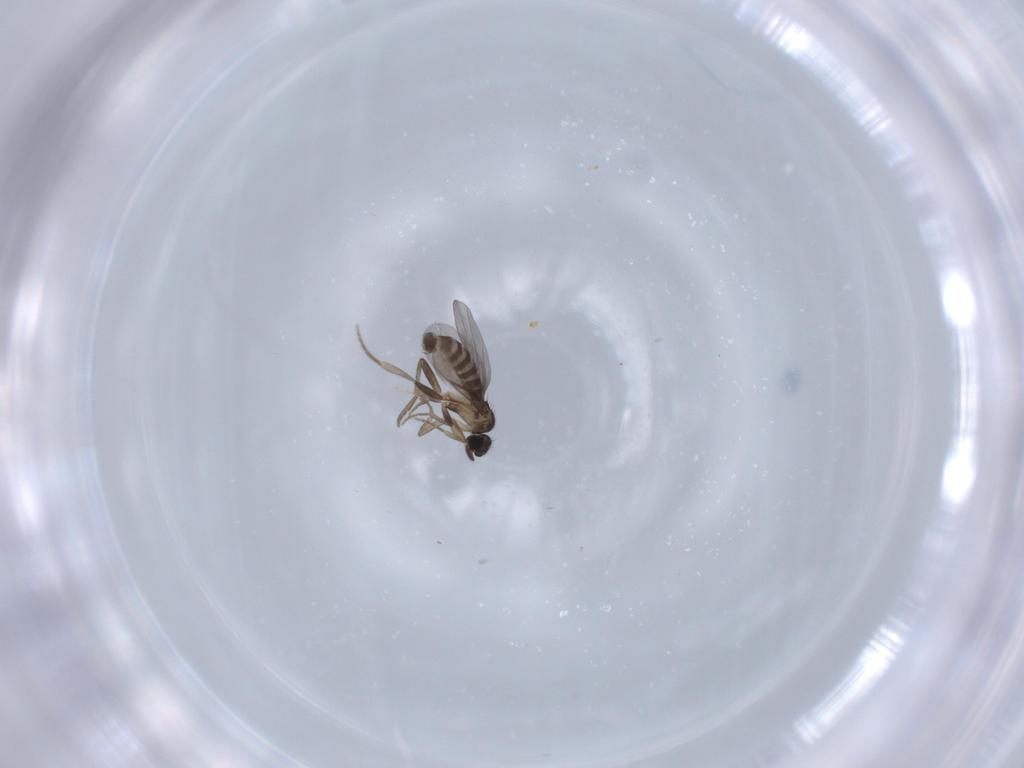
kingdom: Animalia
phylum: Arthropoda
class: Insecta
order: Diptera
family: Phoridae
